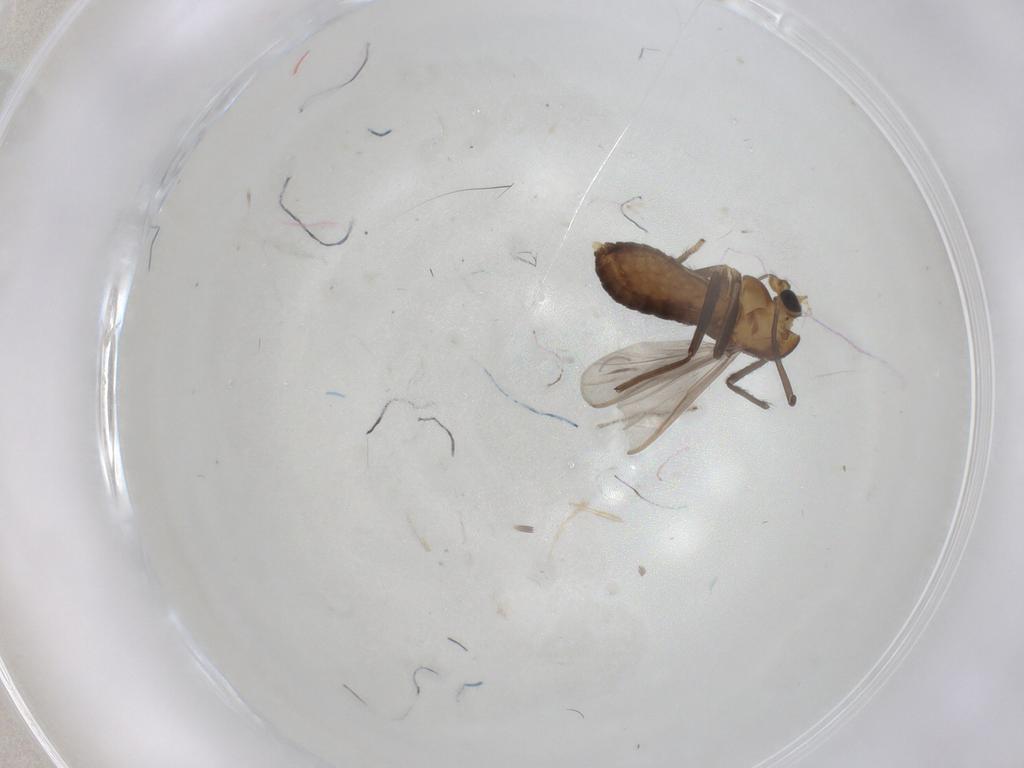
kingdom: Animalia
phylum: Arthropoda
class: Insecta
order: Diptera
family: Chironomidae
